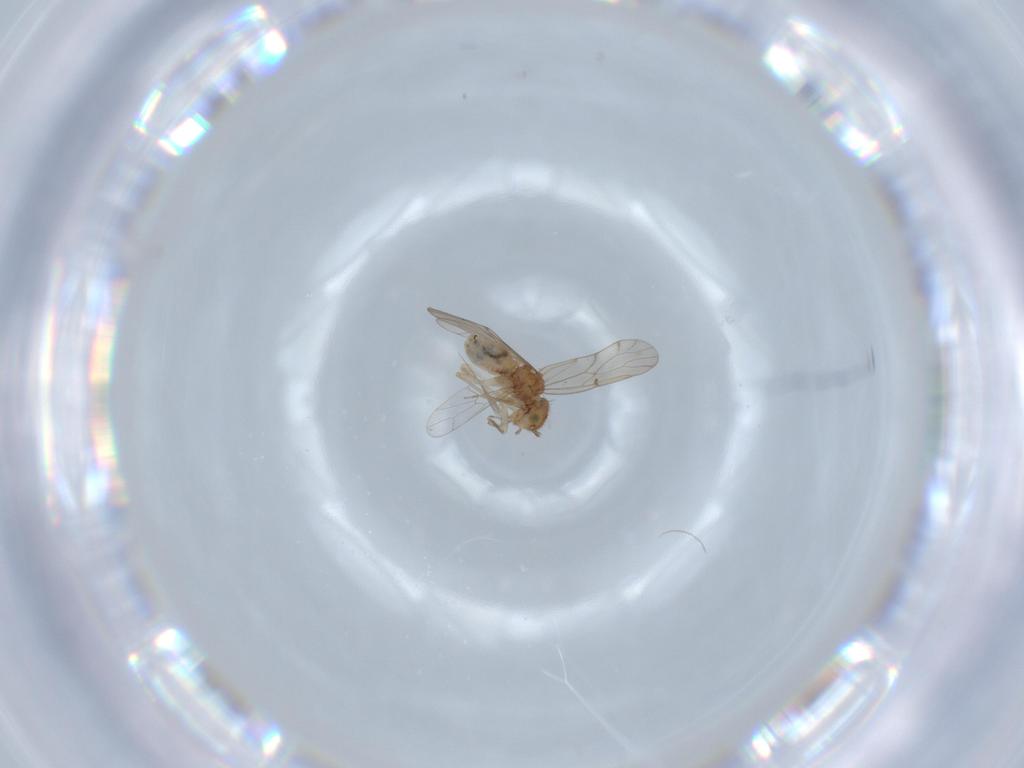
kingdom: Animalia
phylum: Arthropoda
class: Insecta
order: Psocodea
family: Ectopsocidae
